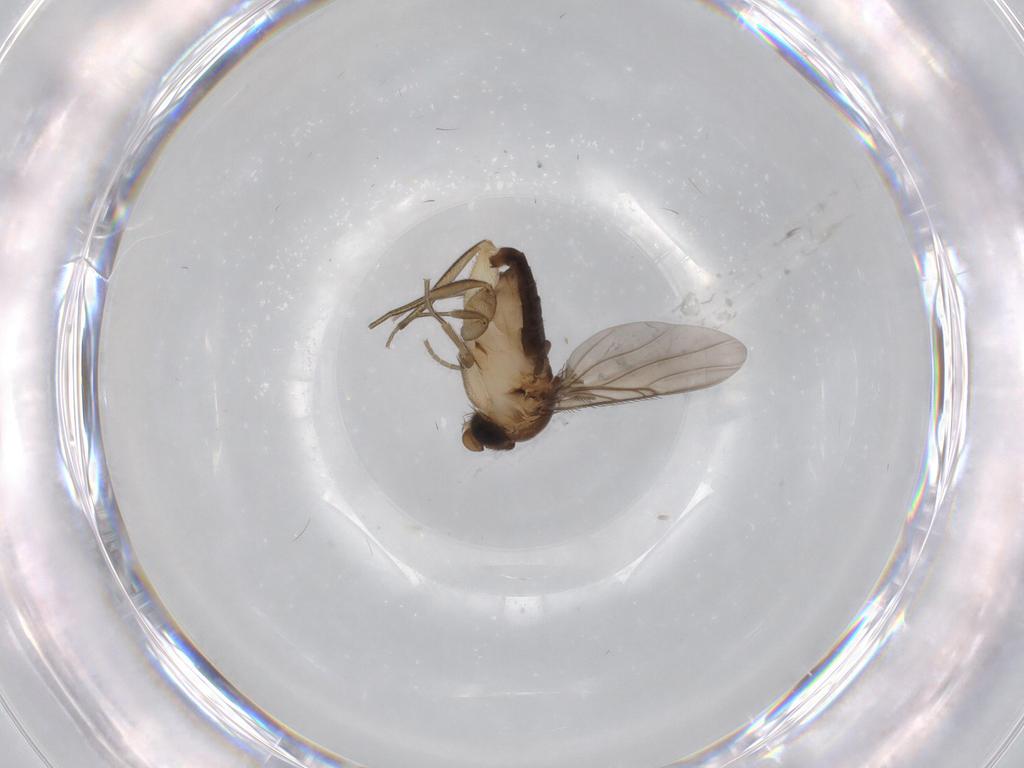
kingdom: Animalia
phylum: Arthropoda
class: Insecta
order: Diptera
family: Phoridae
